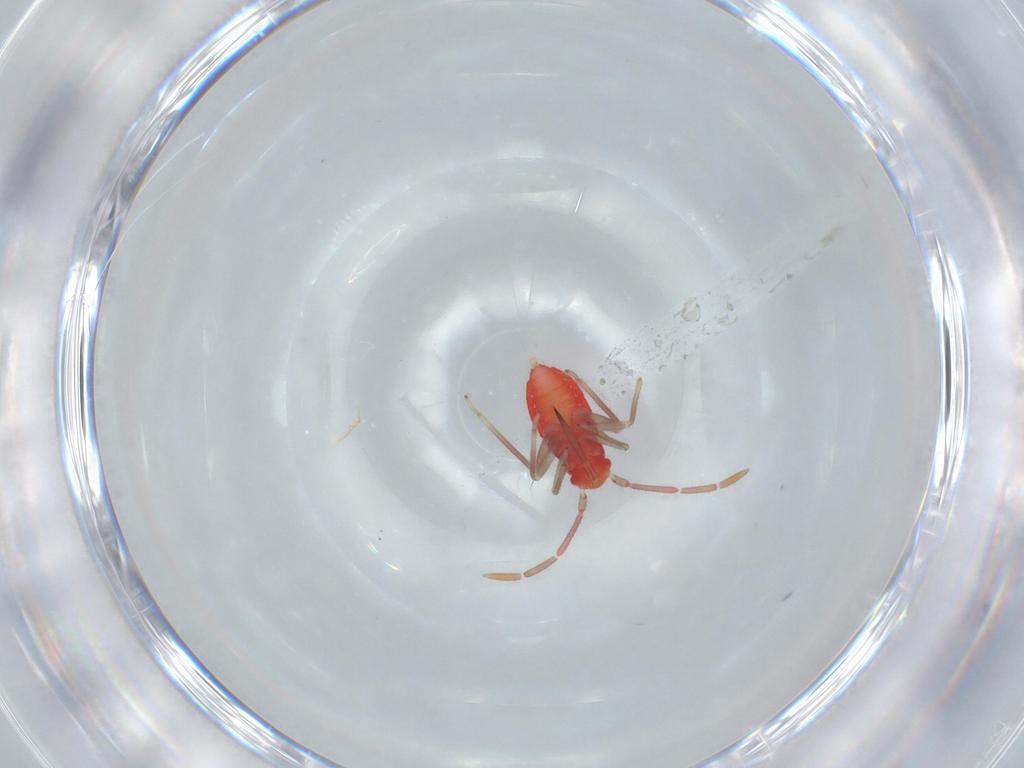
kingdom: Animalia
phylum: Arthropoda
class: Insecta
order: Hemiptera
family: Miridae
